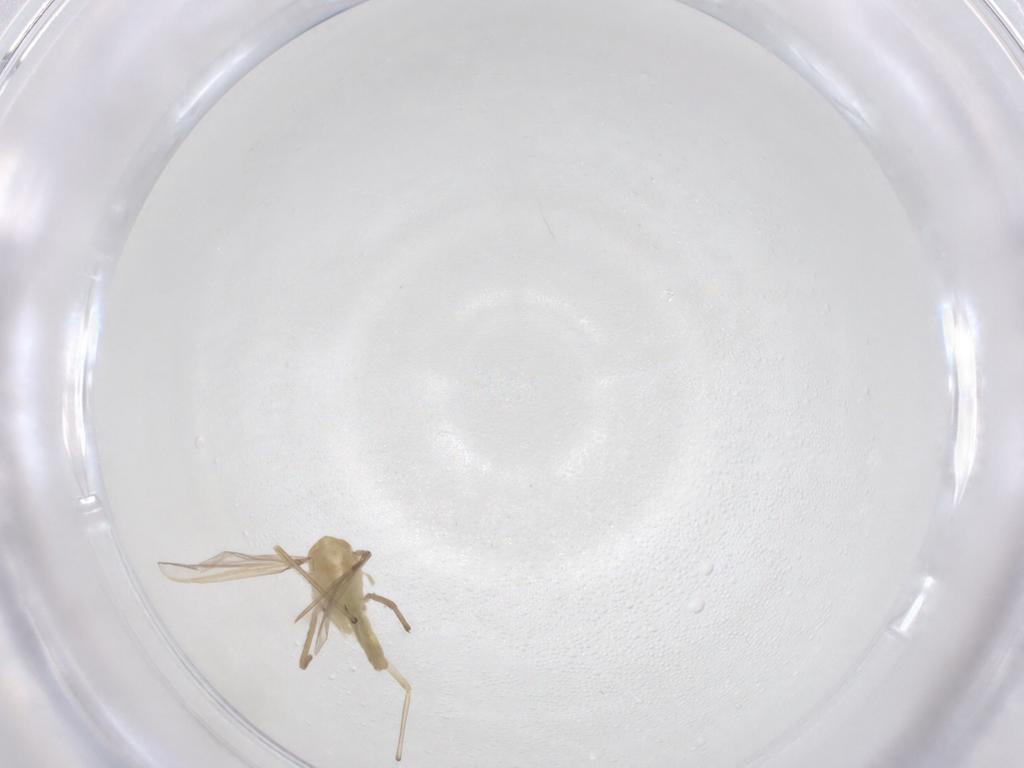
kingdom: Animalia
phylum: Arthropoda
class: Insecta
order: Diptera
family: Chironomidae
